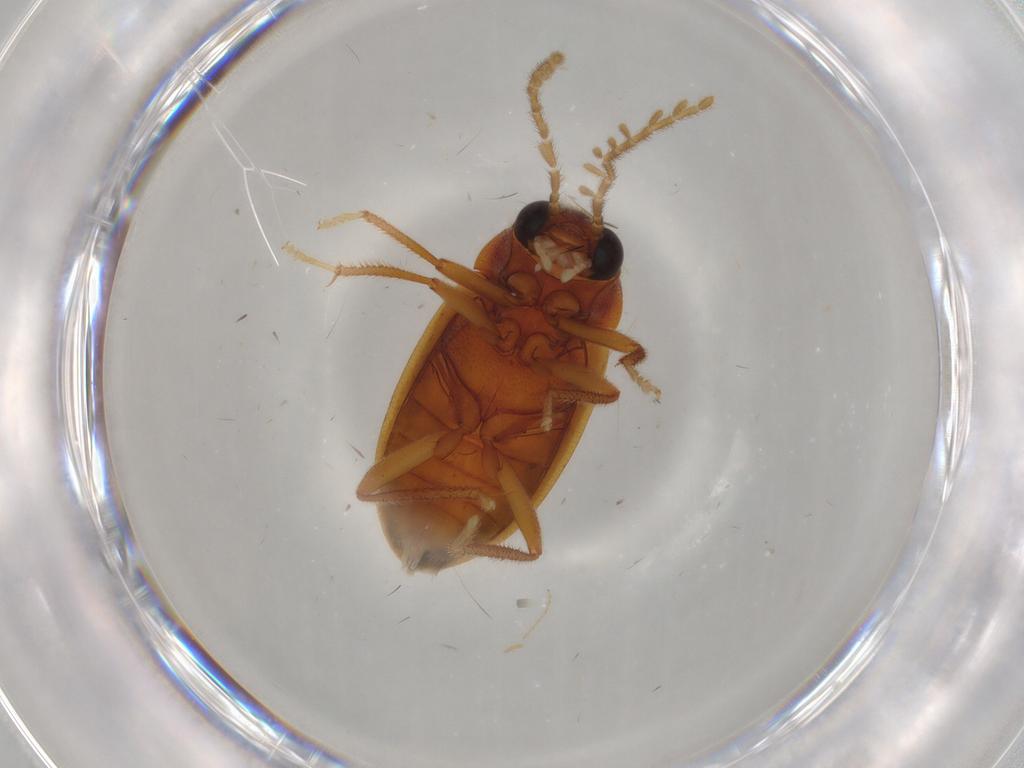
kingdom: Animalia
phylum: Arthropoda
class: Insecta
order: Coleoptera
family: Ptilodactylidae
